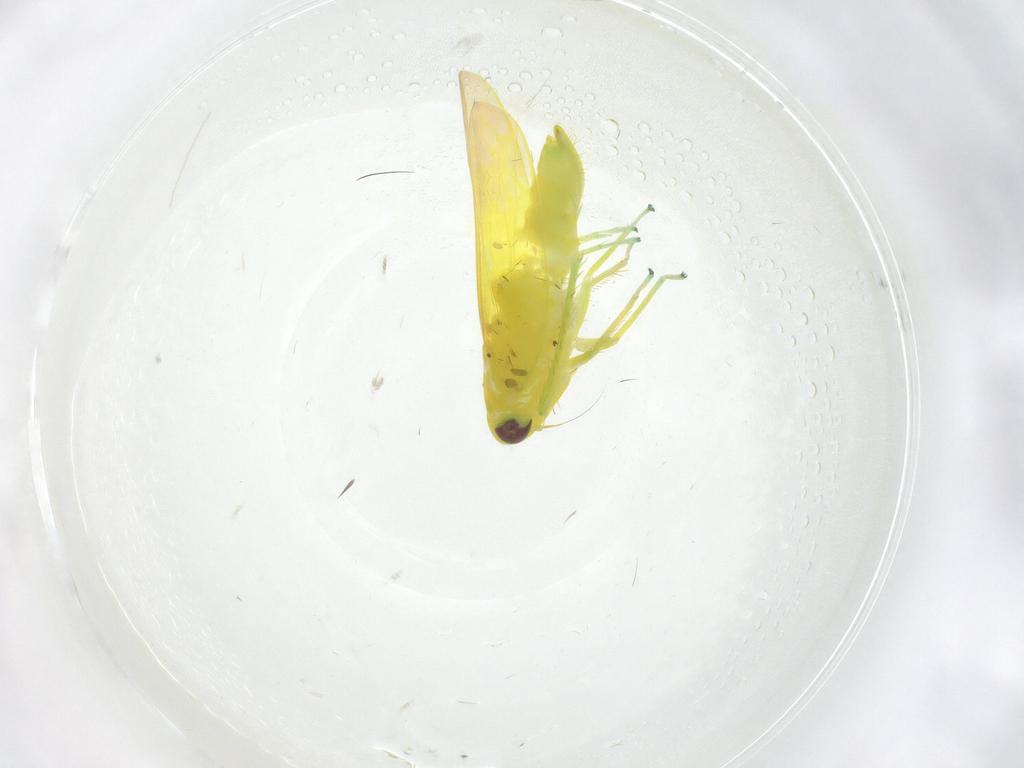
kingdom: Animalia
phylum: Arthropoda
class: Insecta
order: Hemiptera
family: Cicadellidae
